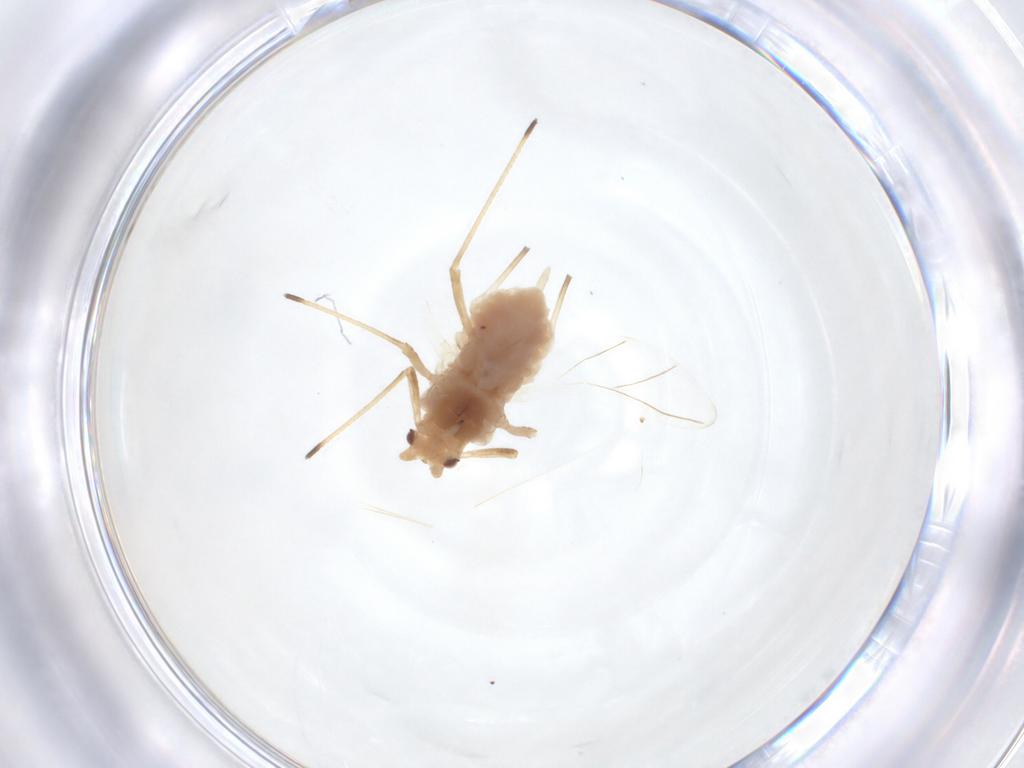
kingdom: Animalia
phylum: Arthropoda
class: Insecta
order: Hemiptera
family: Aphididae
